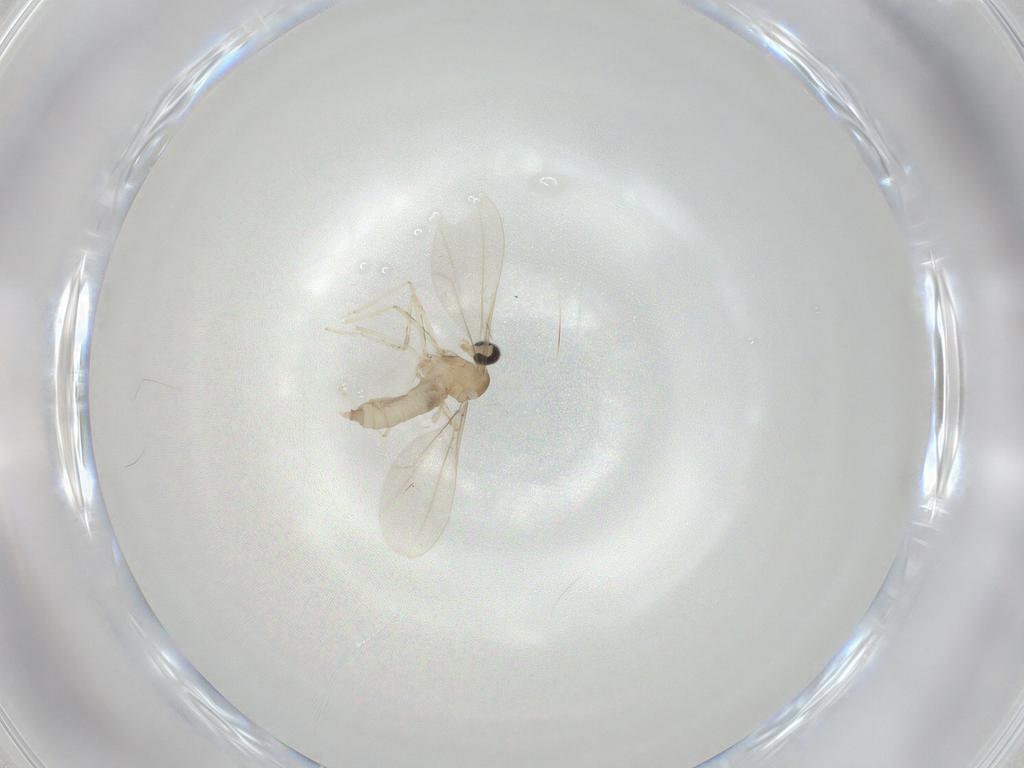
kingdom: Animalia
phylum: Arthropoda
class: Insecta
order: Diptera
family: Cecidomyiidae
